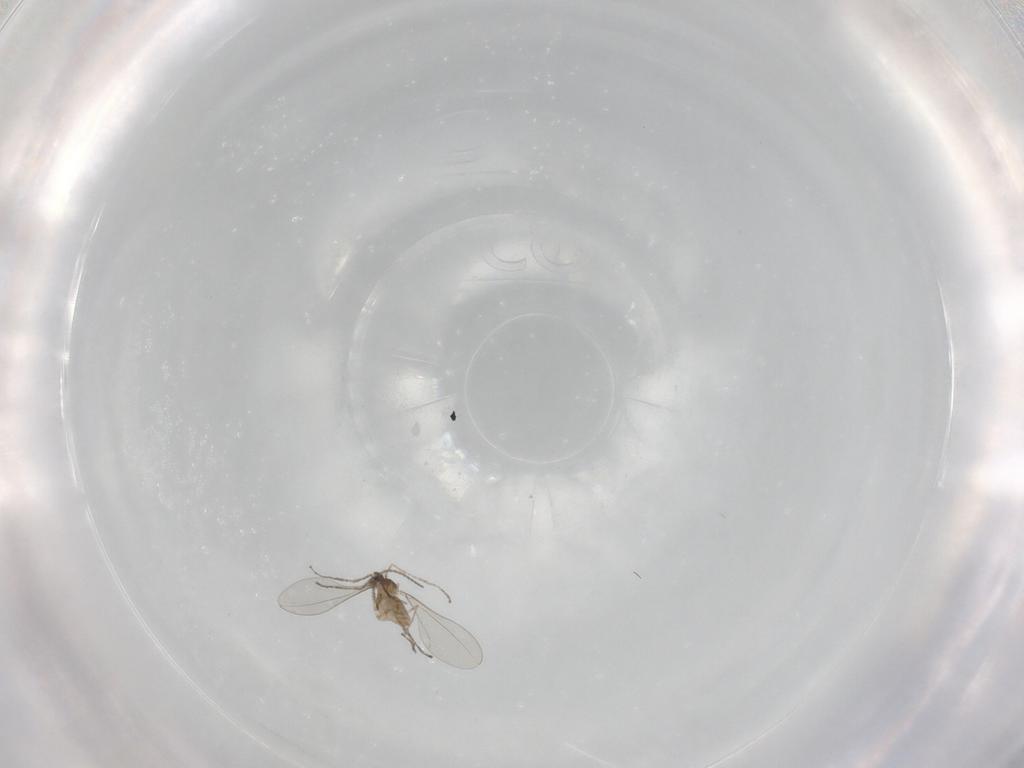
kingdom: Animalia
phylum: Arthropoda
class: Insecta
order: Diptera
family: Cecidomyiidae
